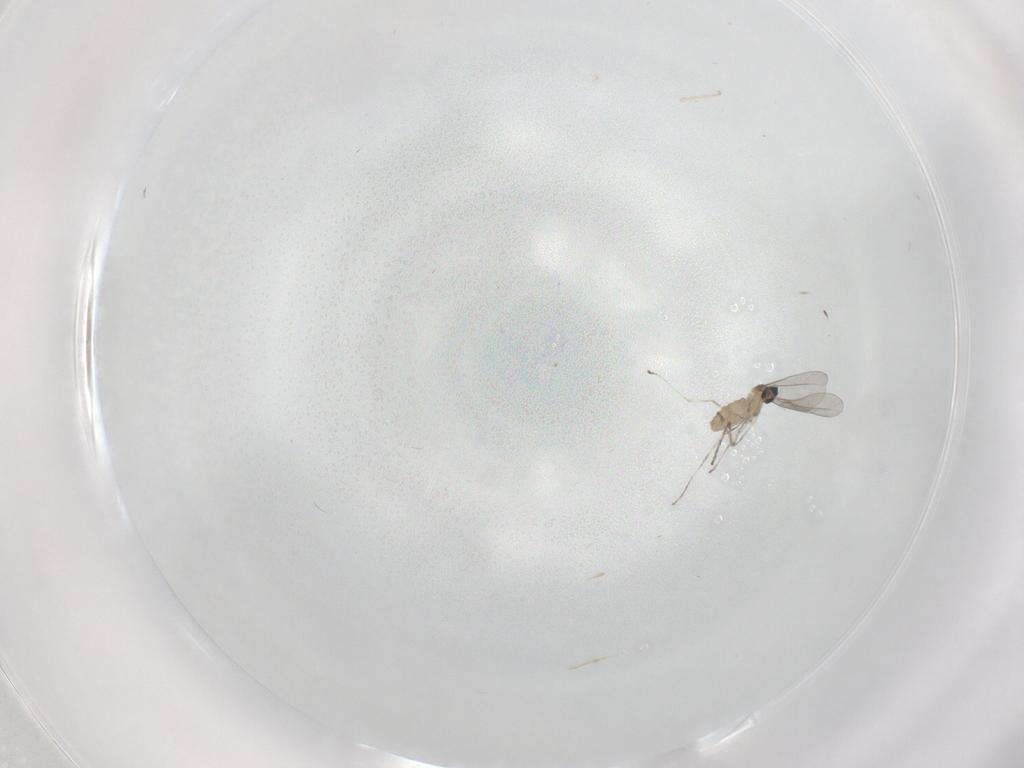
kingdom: Animalia
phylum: Arthropoda
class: Insecta
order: Diptera
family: Cecidomyiidae
